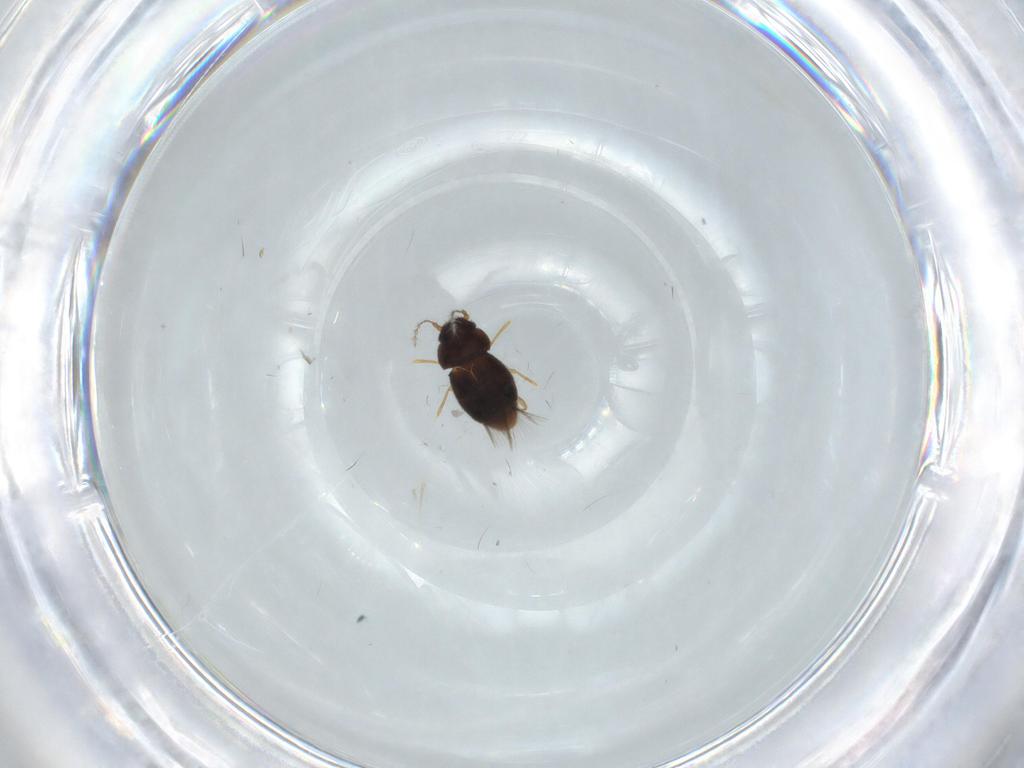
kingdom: Animalia
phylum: Arthropoda
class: Insecta
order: Coleoptera
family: Ptiliidae
